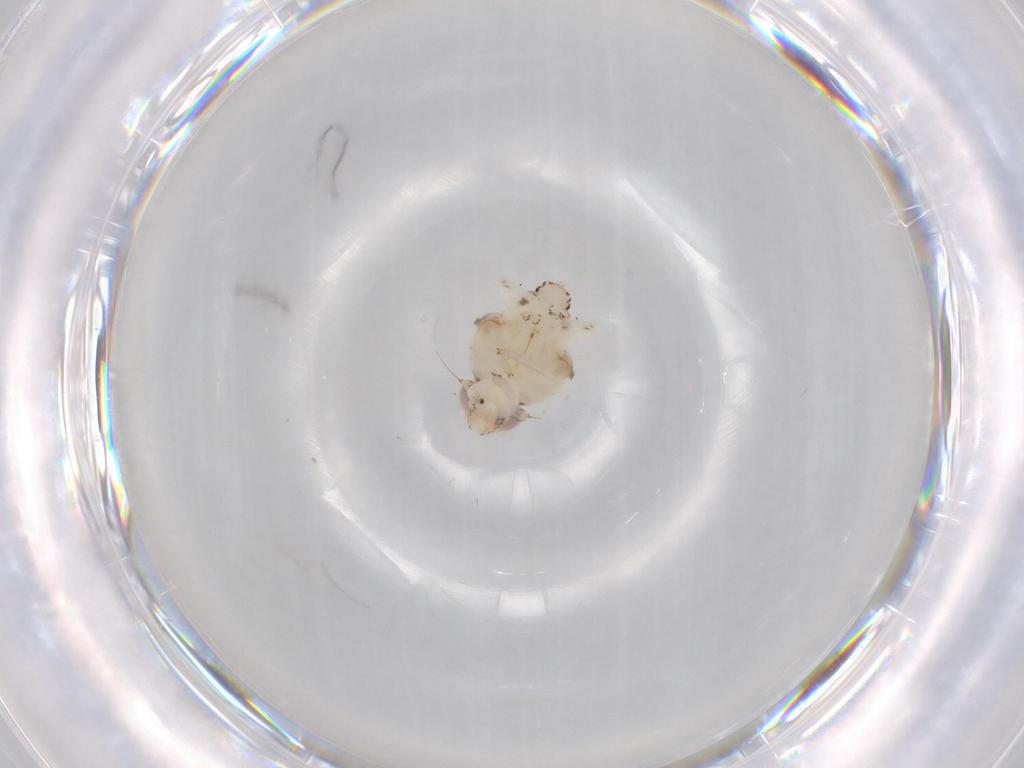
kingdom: Animalia
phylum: Arthropoda
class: Insecta
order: Hemiptera
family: Nogodinidae
